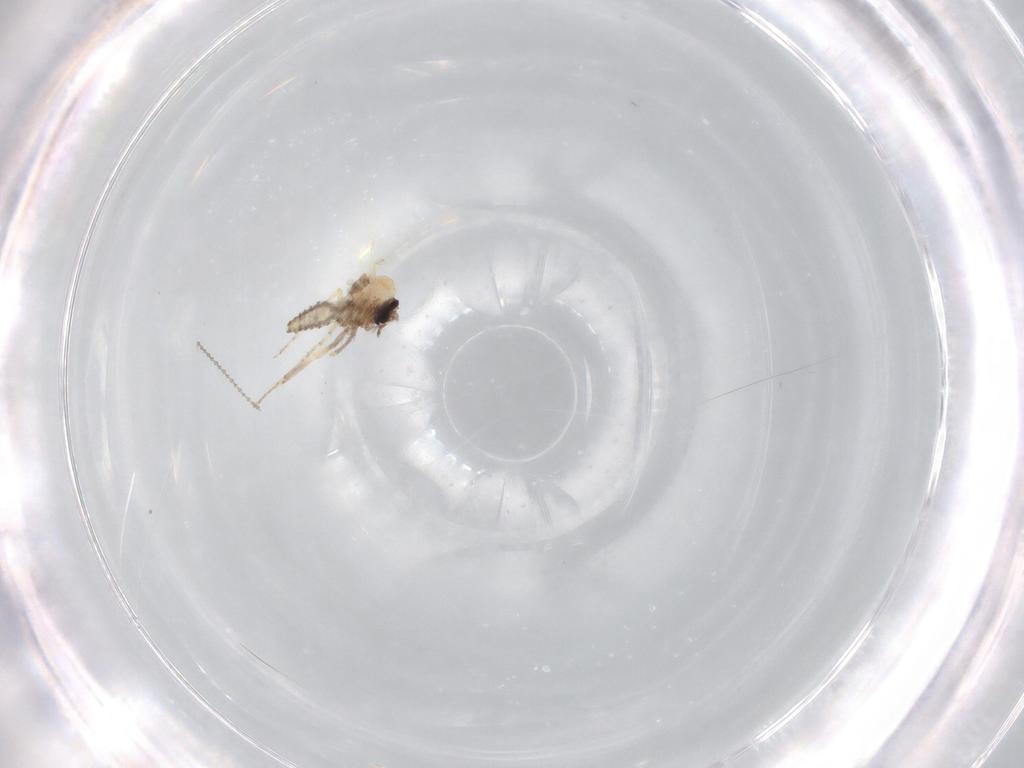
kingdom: Animalia
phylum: Arthropoda
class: Insecta
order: Diptera
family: Ceratopogonidae
